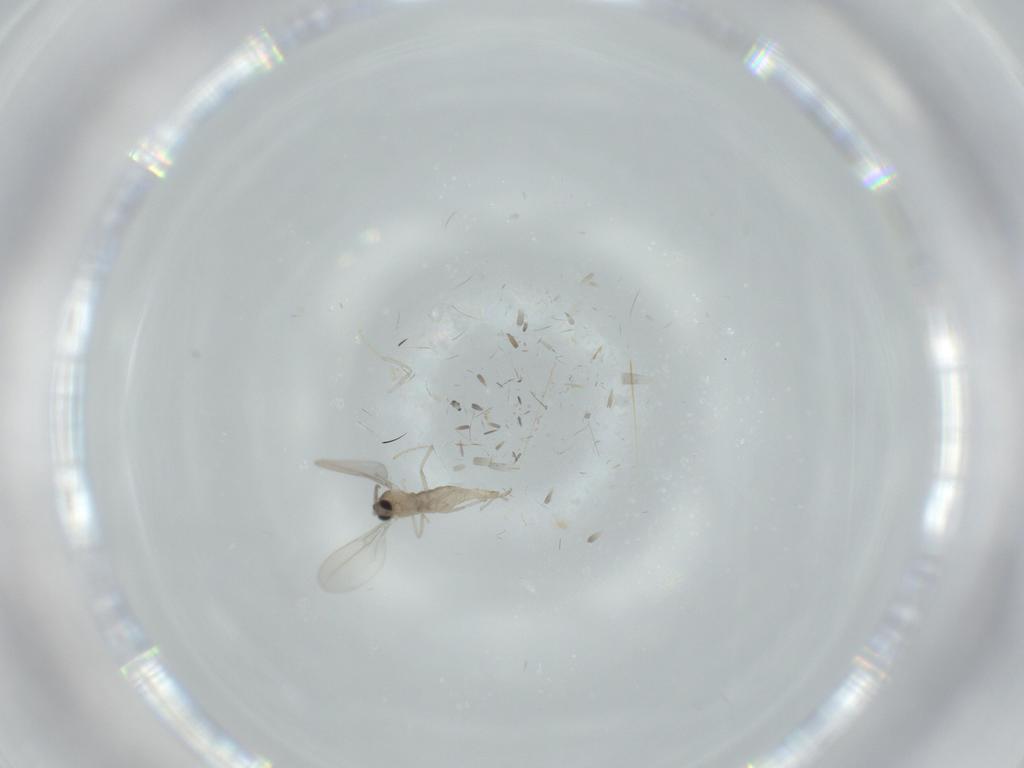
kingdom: Animalia
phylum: Arthropoda
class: Insecta
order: Diptera
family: Cecidomyiidae
